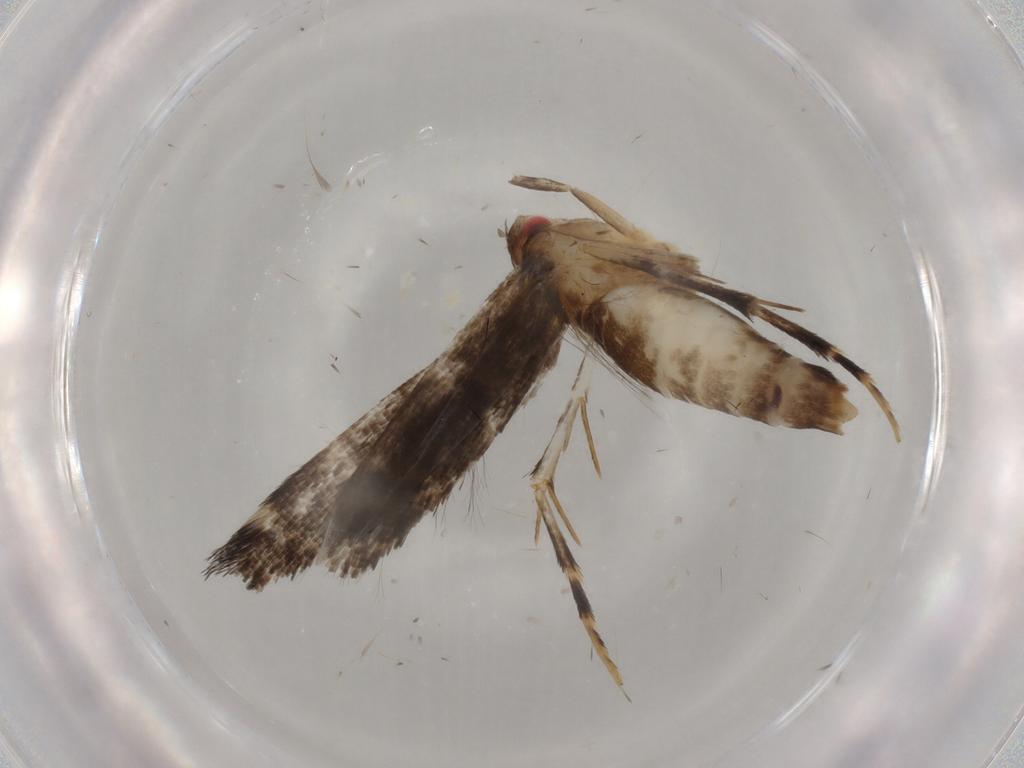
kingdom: Animalia
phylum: Arthropoda
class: Insecta
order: Lepidoptera
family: Cosmopterigidae
